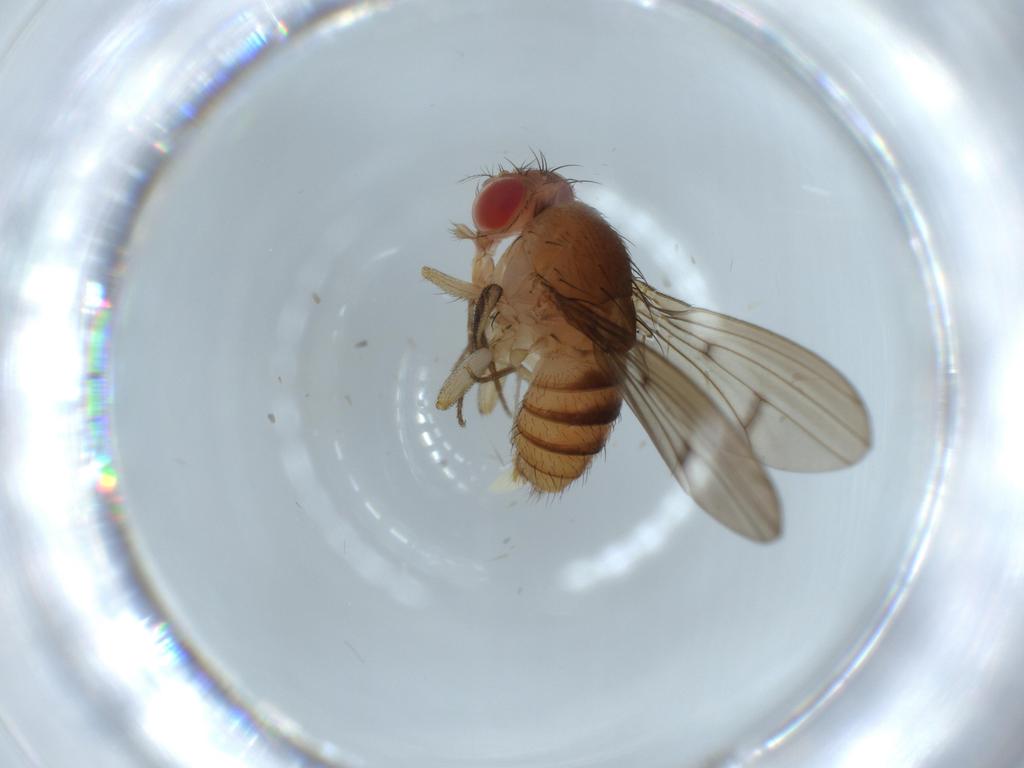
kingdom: Animalia
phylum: Arthropoda
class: Insecta
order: Diptera
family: Drosophilidae
